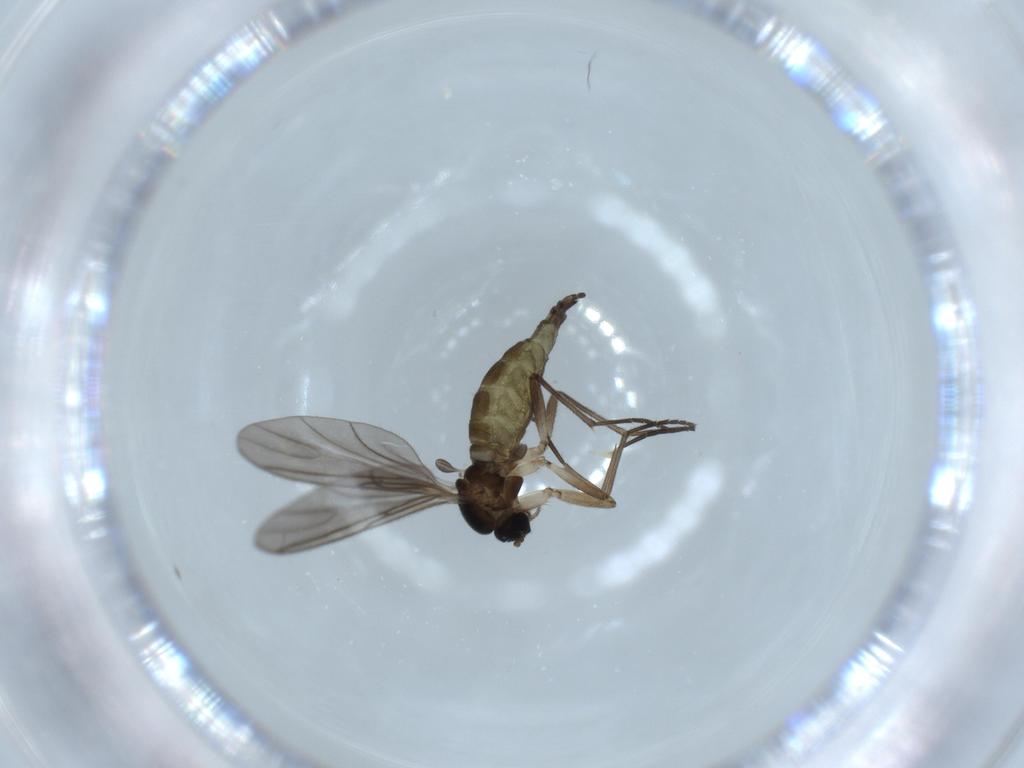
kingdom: Animalia
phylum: Arthropoda
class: Insecta
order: Diptera
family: Sciaridae
